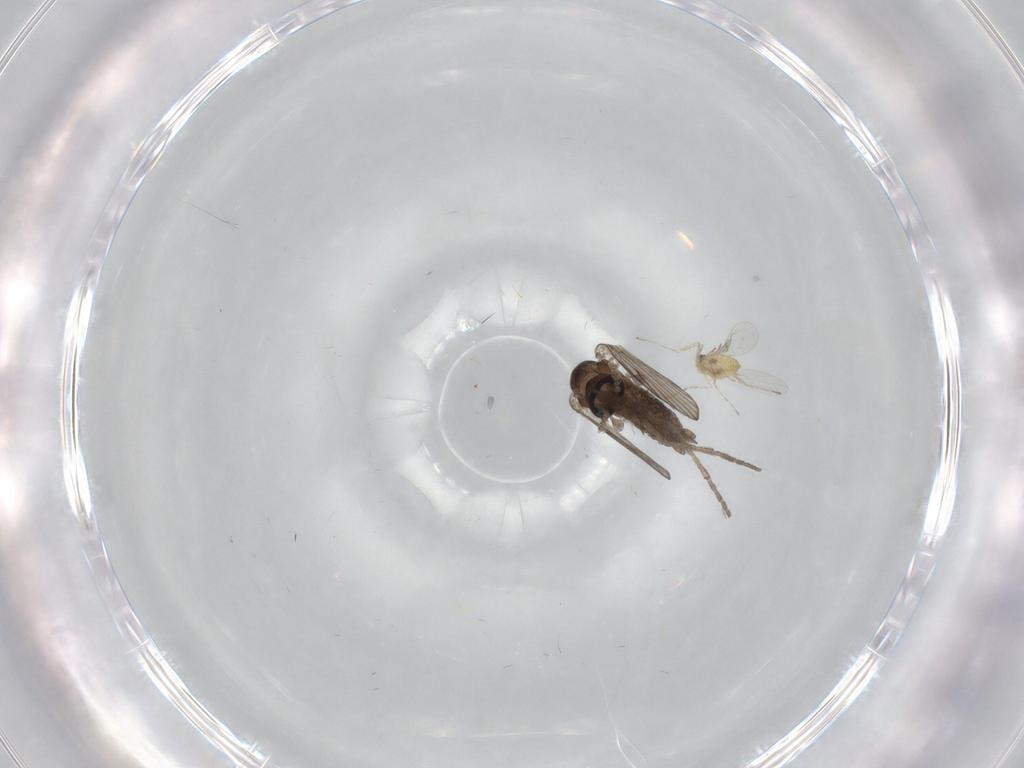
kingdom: Animalia
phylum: Arthropoda
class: Insecta
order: Diptera
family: Psychodidae
